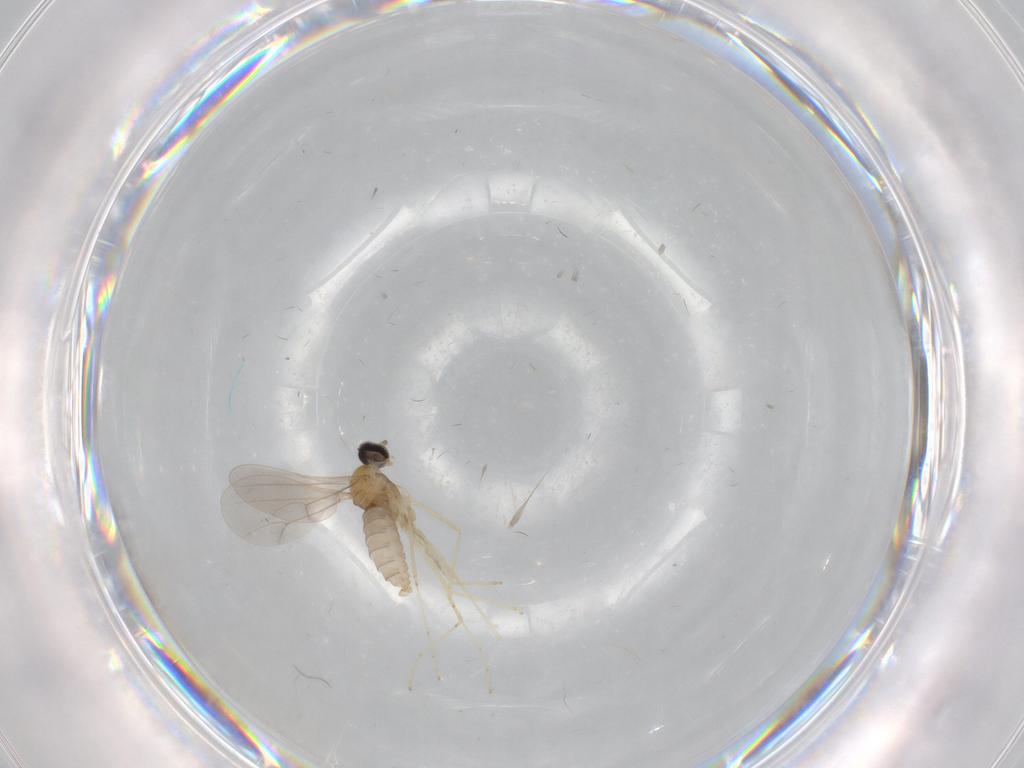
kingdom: Animalia
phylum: Arthropoda
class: Insecta
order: Diptera
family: Cecidomyiidae
